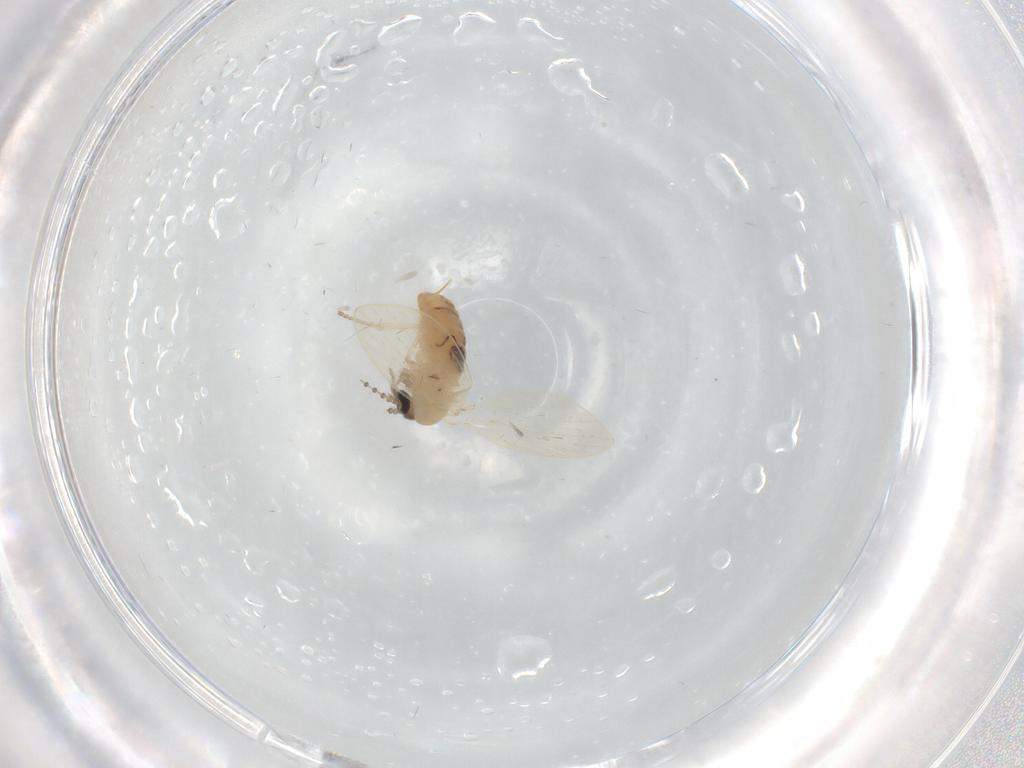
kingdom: Animalia
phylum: Arthropoda
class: Insecta
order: Diptera
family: Psychodidae
